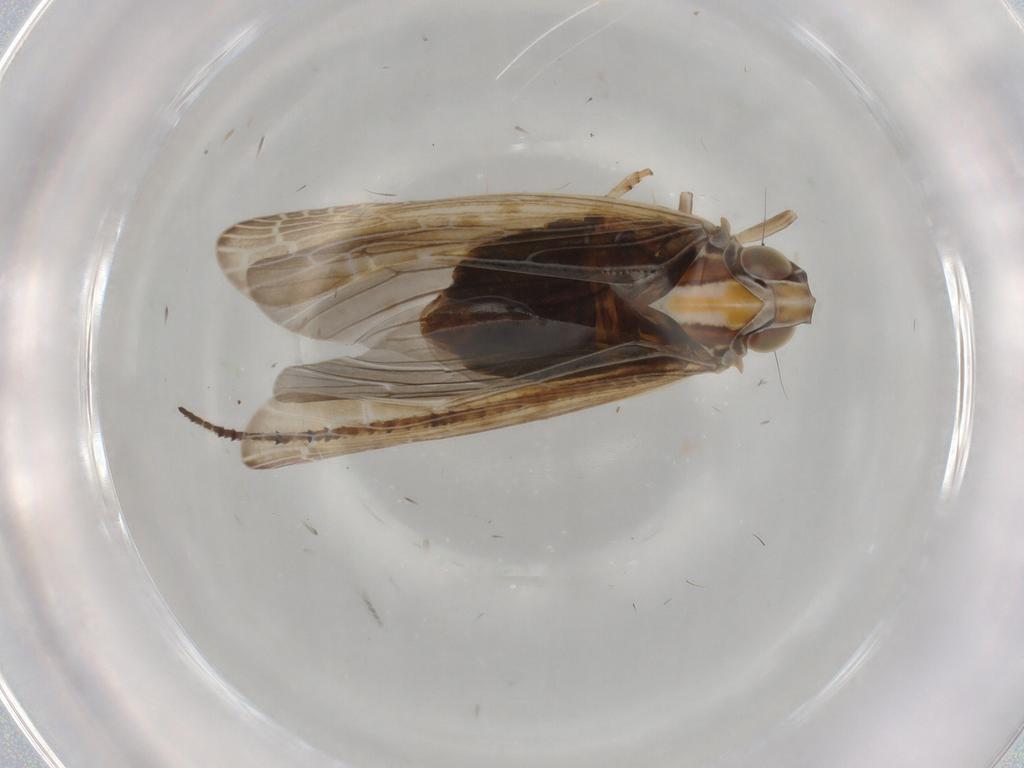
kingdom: Animalia
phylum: Arthropoda
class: Insecta
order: Hemiptera
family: Achilidae
